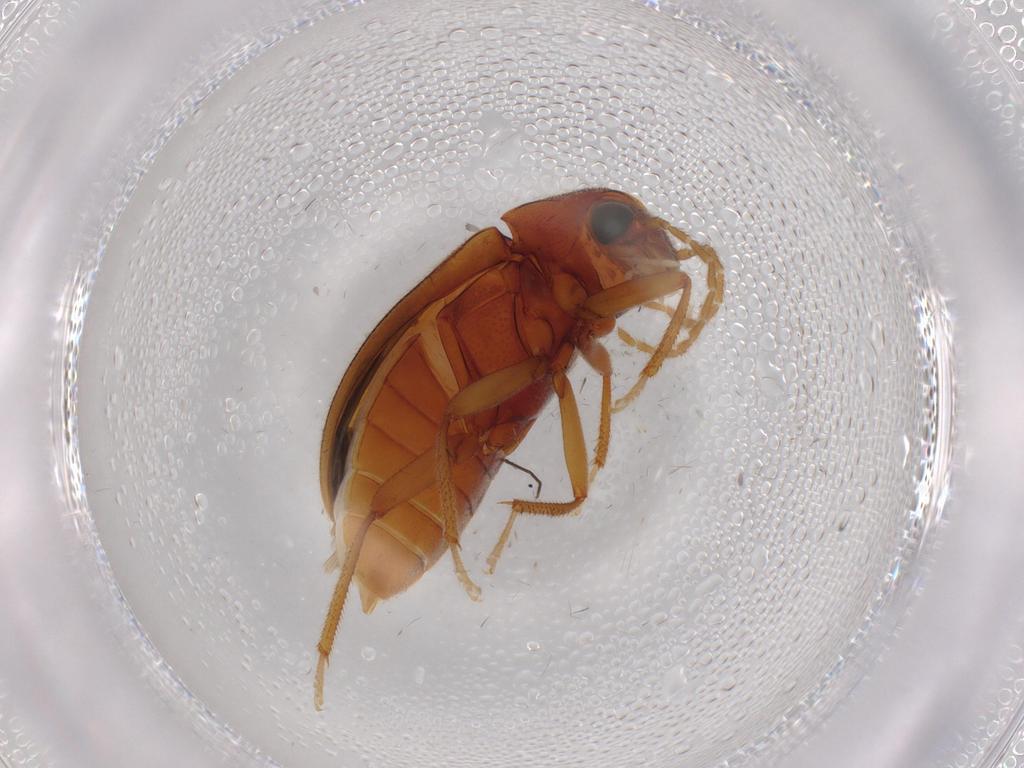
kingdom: Animalia
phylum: Arthropoda
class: Insecta
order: Coleoptera
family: Ptilodactylidae
